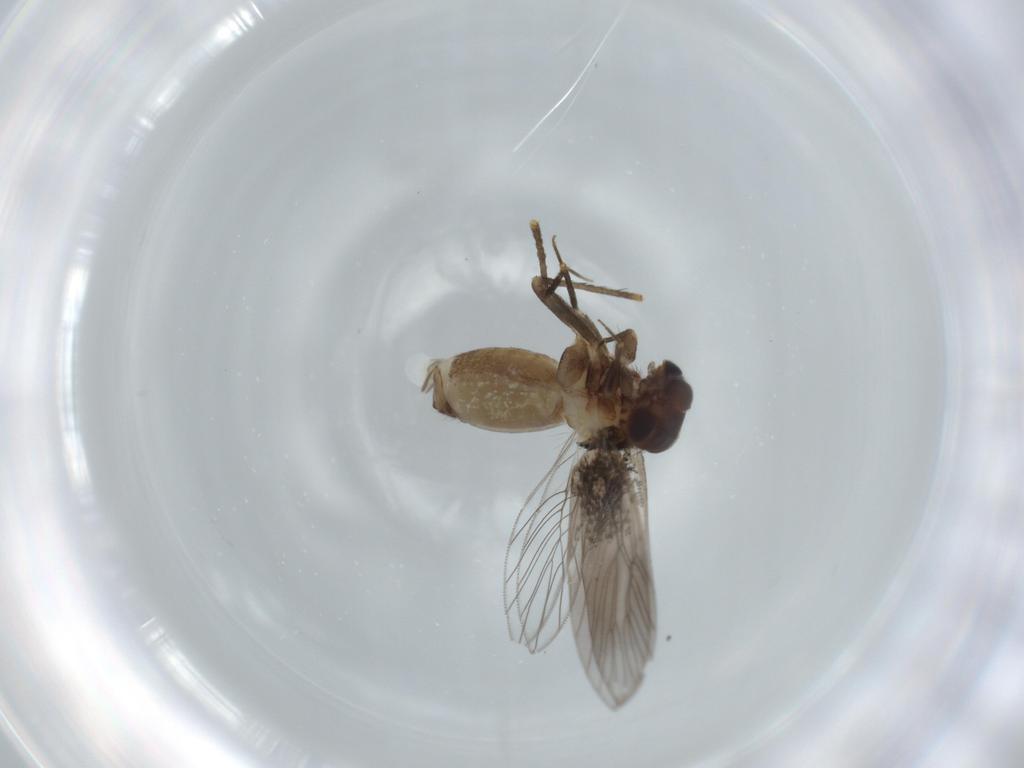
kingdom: Animalia
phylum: Arthropoda
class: Insecta
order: Psocodea
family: Lepidopsocidae
